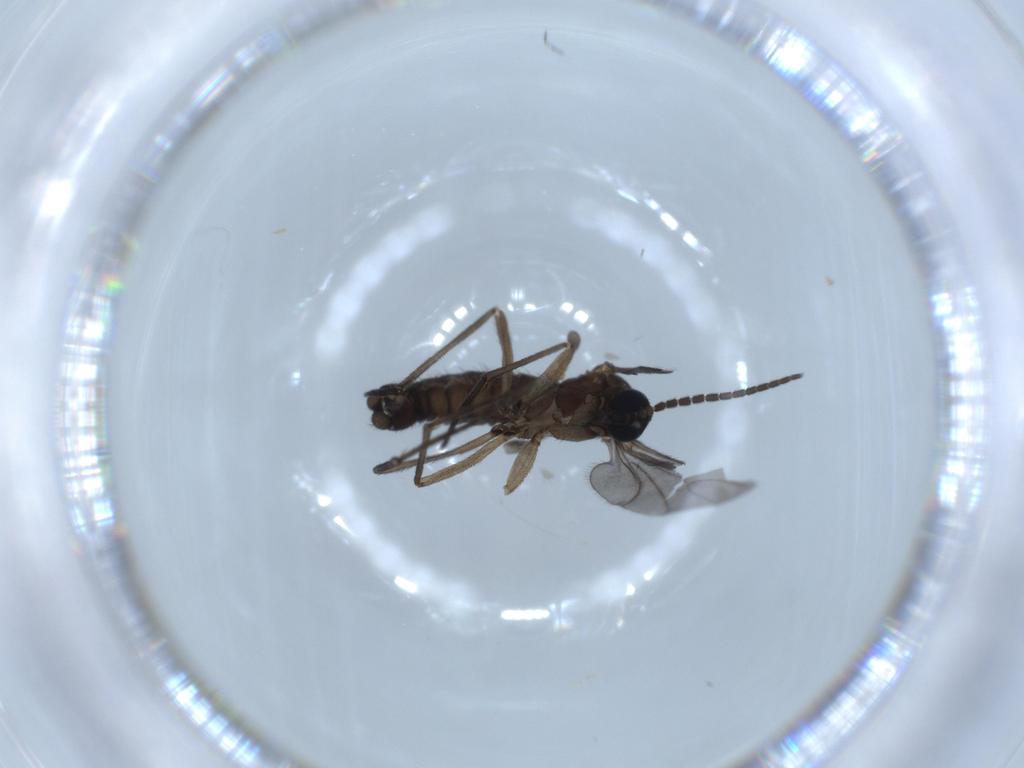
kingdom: Animalia
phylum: Arthropoda
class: Insecta
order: Diptera
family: Sciaridae
